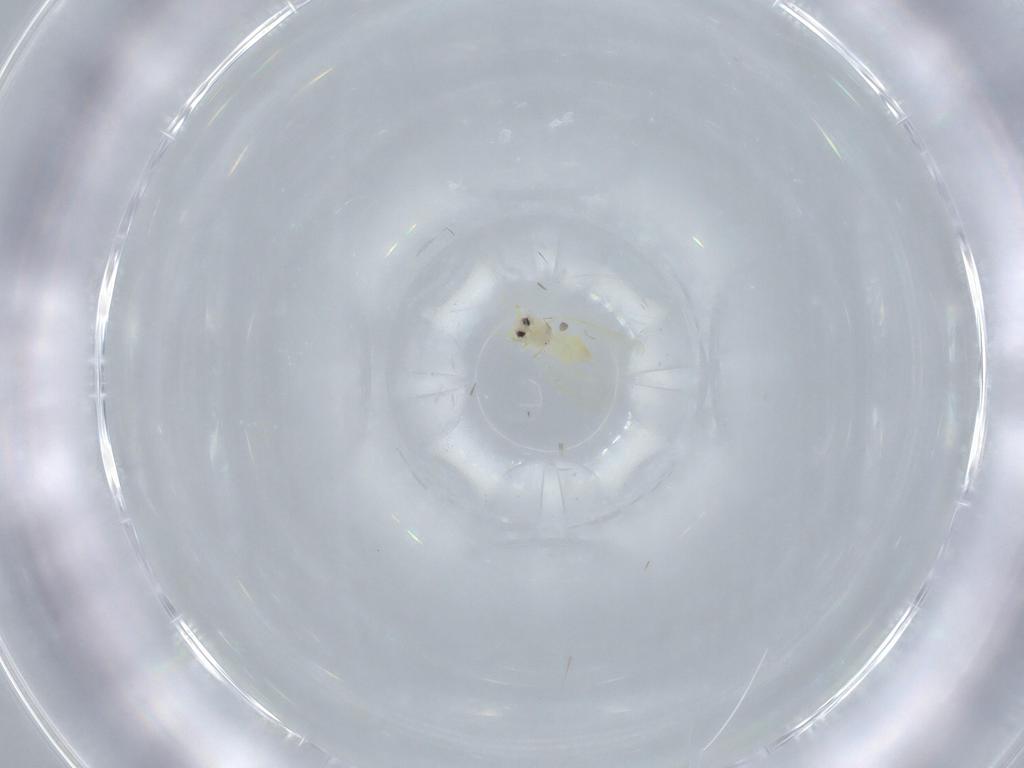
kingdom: Animalia
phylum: Arthropoda
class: Insecta
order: Hemiptera
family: Aleyrodidae
